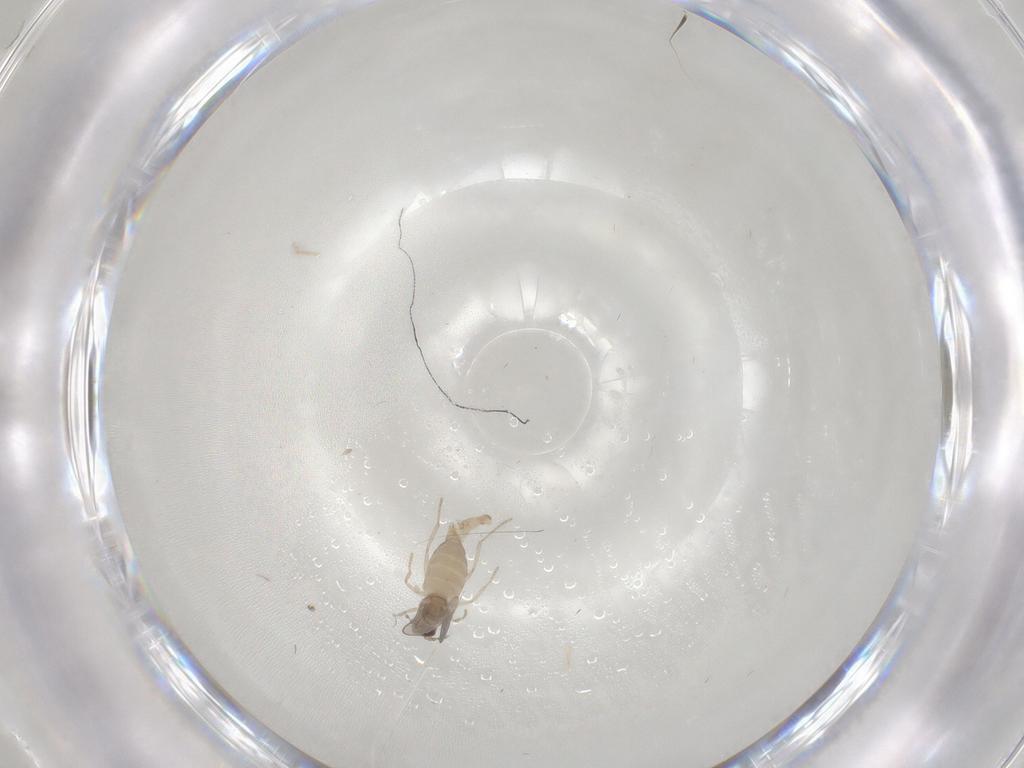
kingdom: Animalia
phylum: Arthropoda
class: Insecta
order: Diptera
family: Cecidomyiidae
